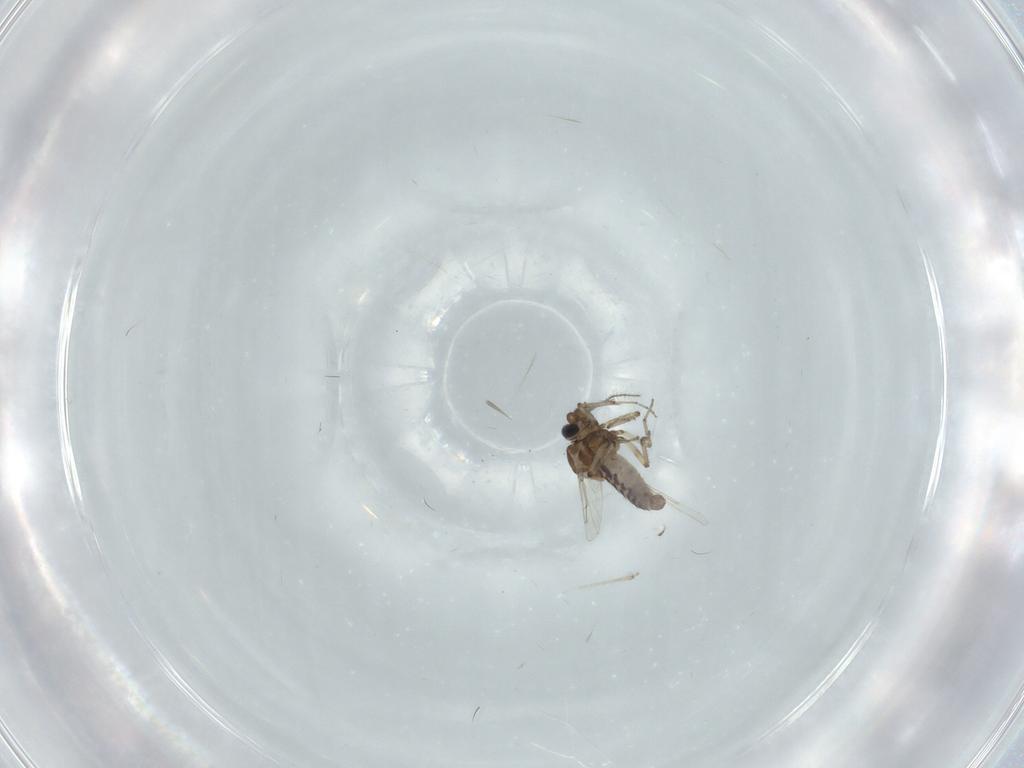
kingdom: Animalia
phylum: Arthropoda
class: Insecta
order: Diptera
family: Ceratopogonidae
